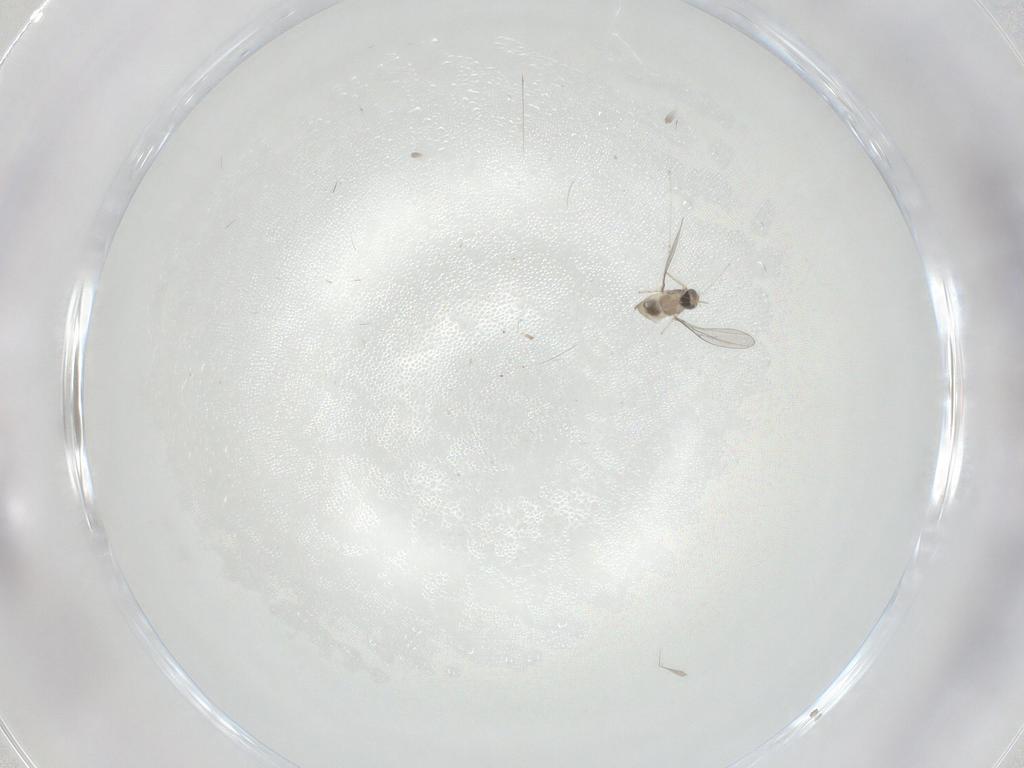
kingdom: Animalia
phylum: Arthropoda
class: Insecta
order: Diptera
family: Cecidomyiidae
